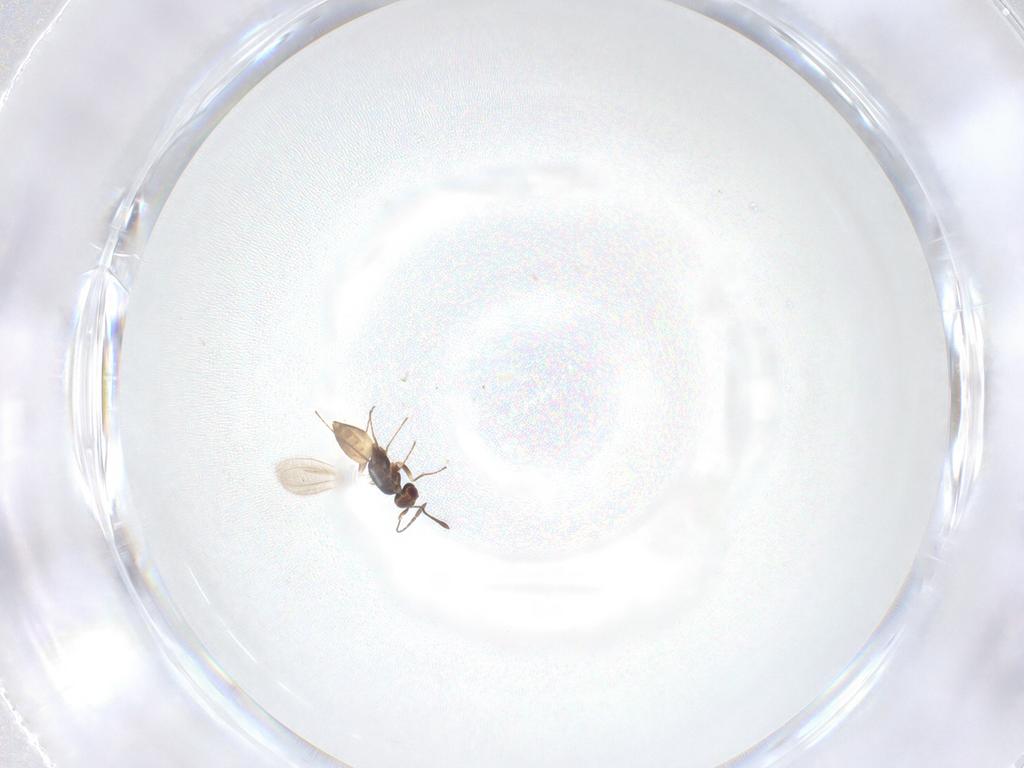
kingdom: Animalia
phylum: Arthropoda
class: Insecta
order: Hymenoptera
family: Mymaridae
